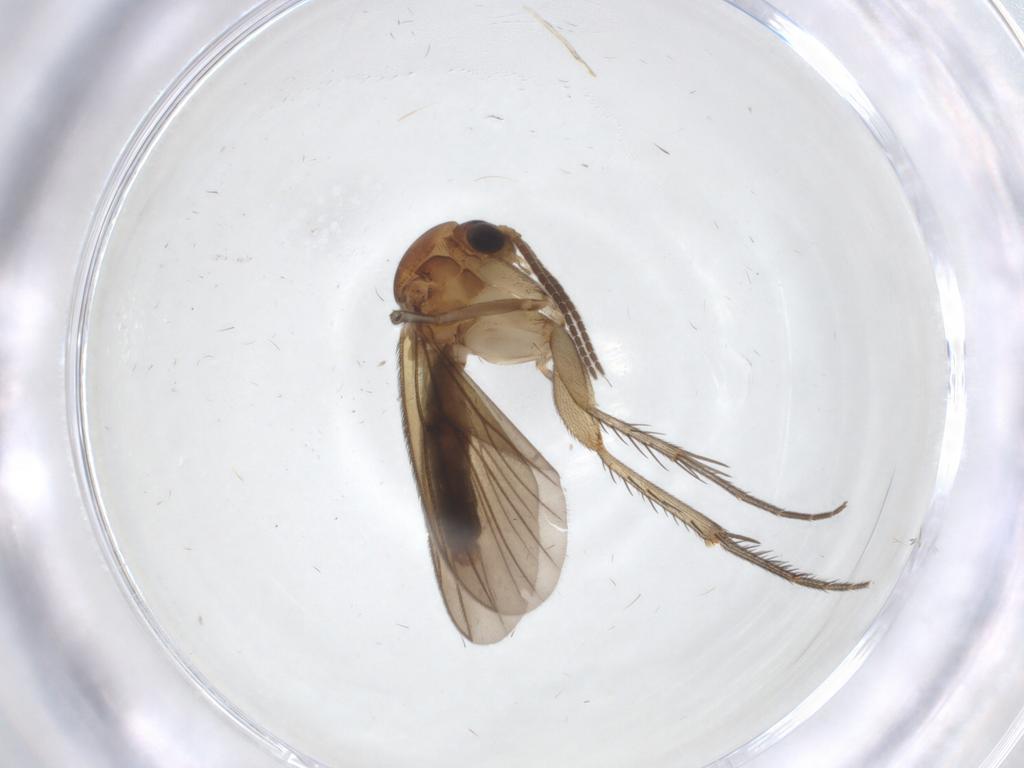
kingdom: Animalia
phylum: Arthropoda
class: Insecta
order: Diptera
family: Mycetophilidae
